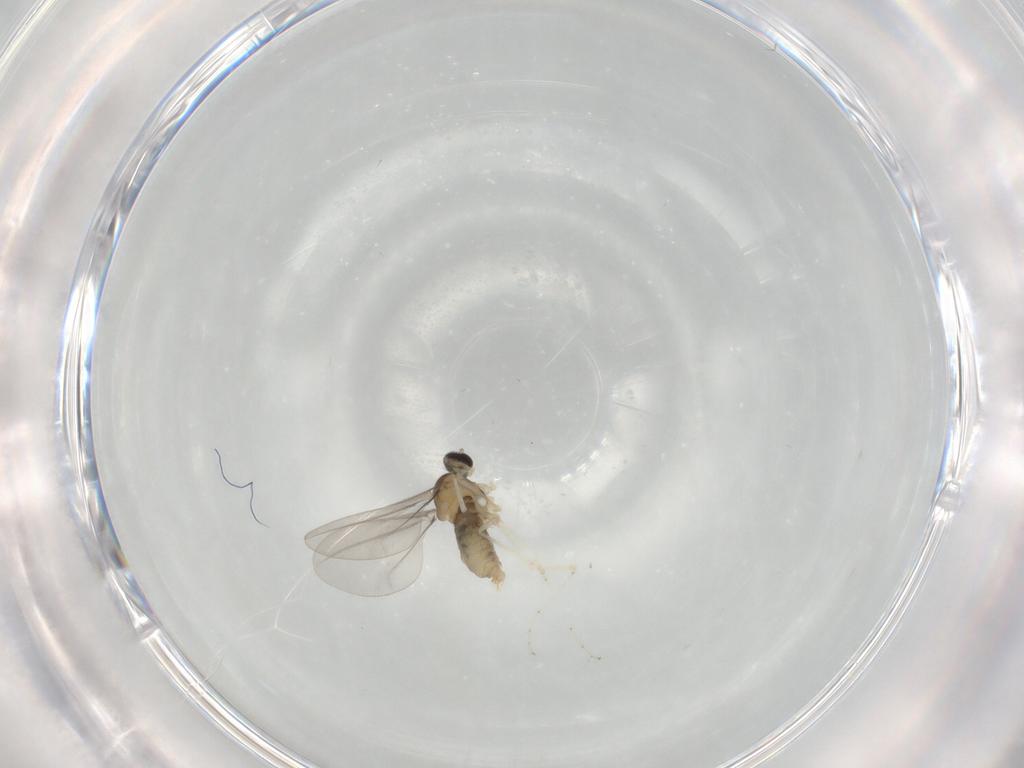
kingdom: Animalia
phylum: Arthropoda
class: Insecta
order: Diptera
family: Cecidomyiidae
